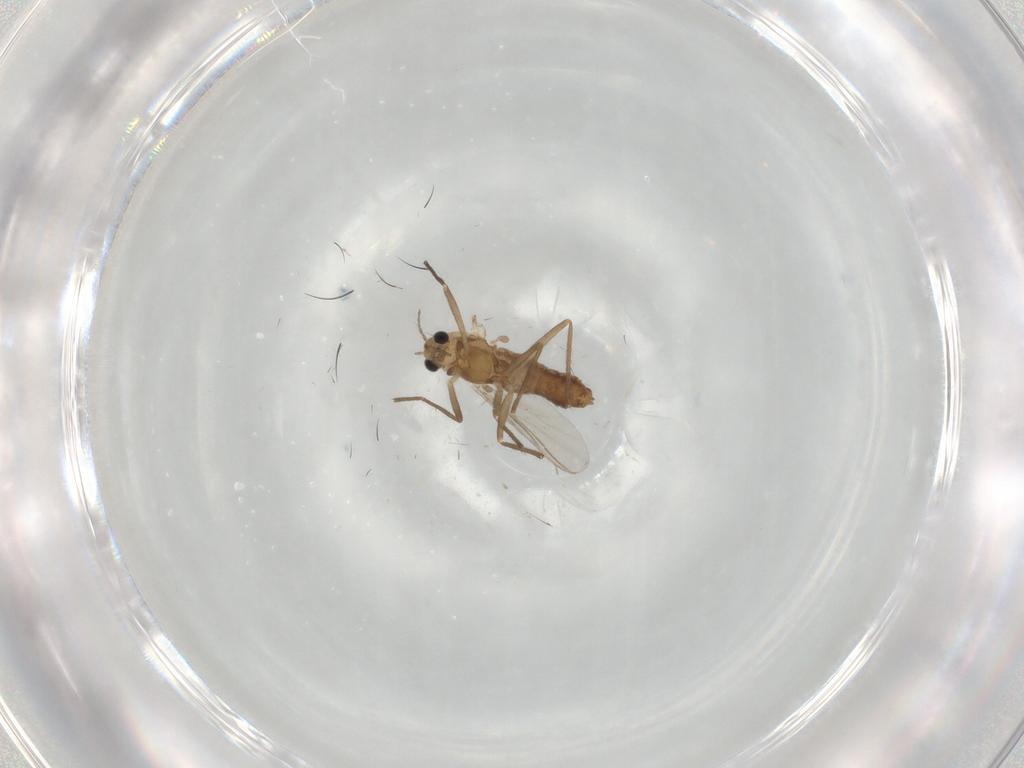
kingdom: Animalia
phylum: Arthropoda
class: Insecta
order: Diptera
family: Chironomidae
